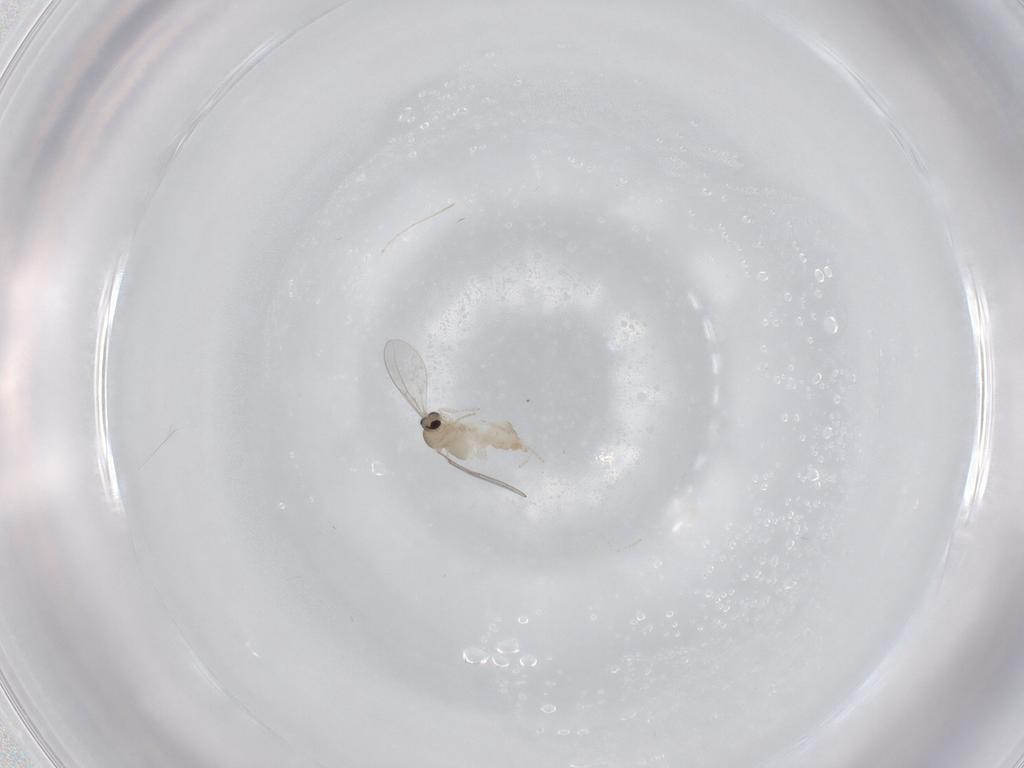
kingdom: Animalia
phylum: Arthropoda
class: Insecta
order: Diptera
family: Cecidomyiidae
